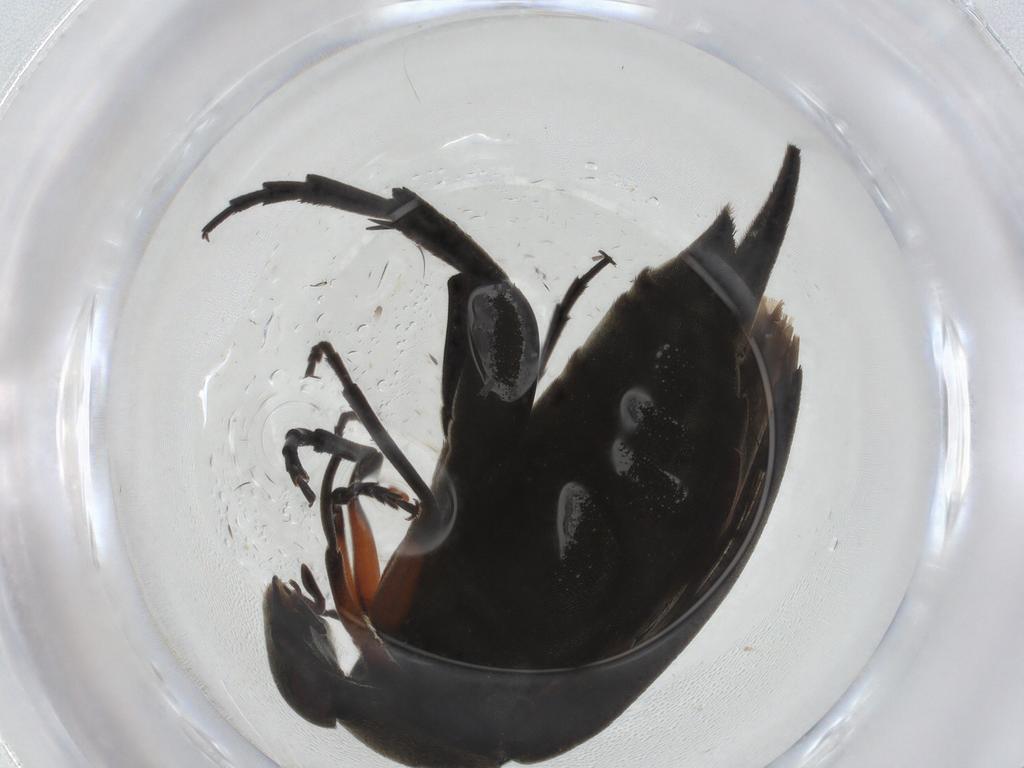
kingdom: Animalia
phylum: Arthropoda
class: Insecta
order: Coleoptera
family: Mordellidae
